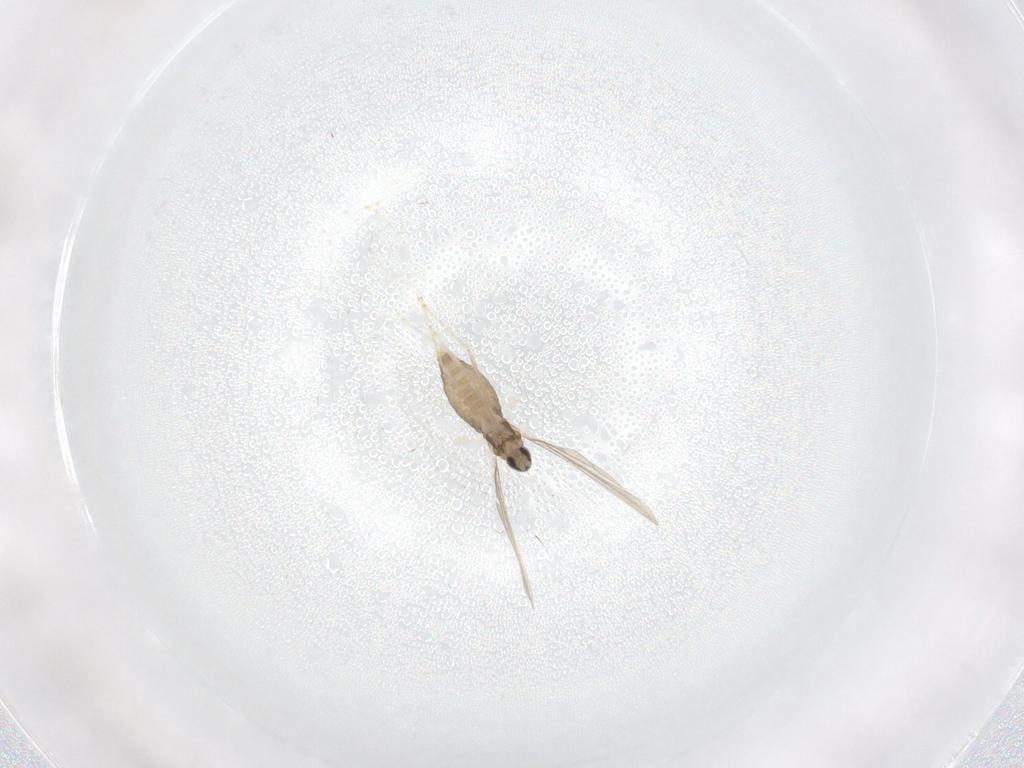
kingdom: Animalia
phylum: Arthropoda
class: Insecta
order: Diptera
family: Cecidomyiidae
